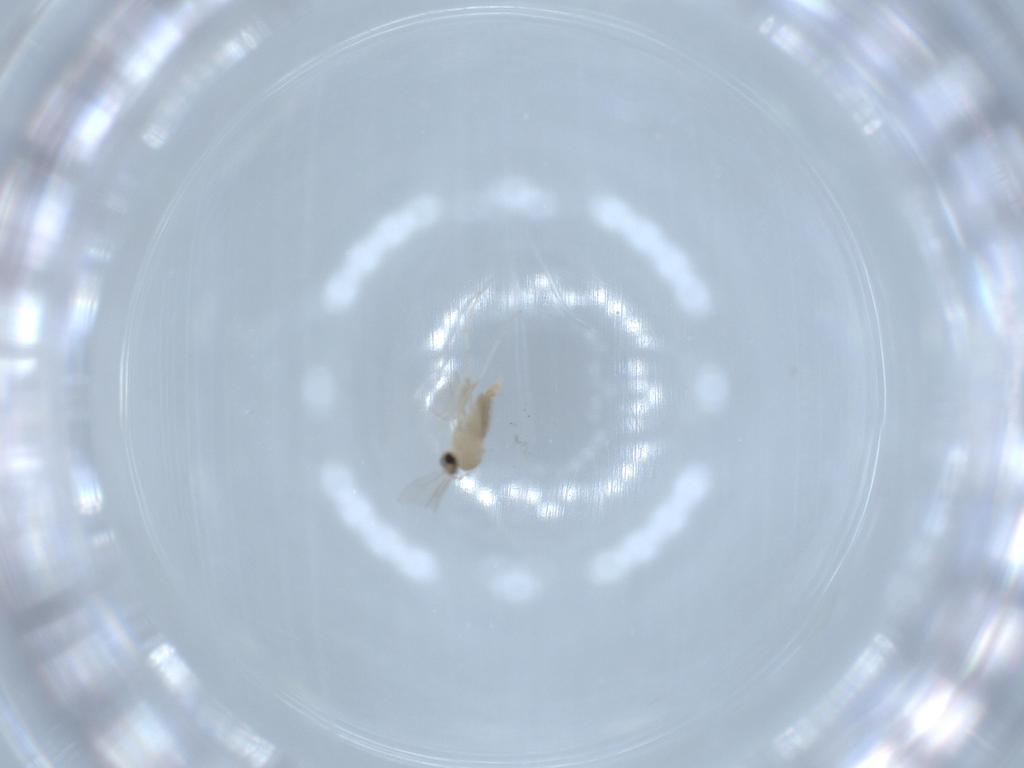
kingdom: Animalia
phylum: Arthropoda
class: Insecta
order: Diptera
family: Cecidomyiidae
